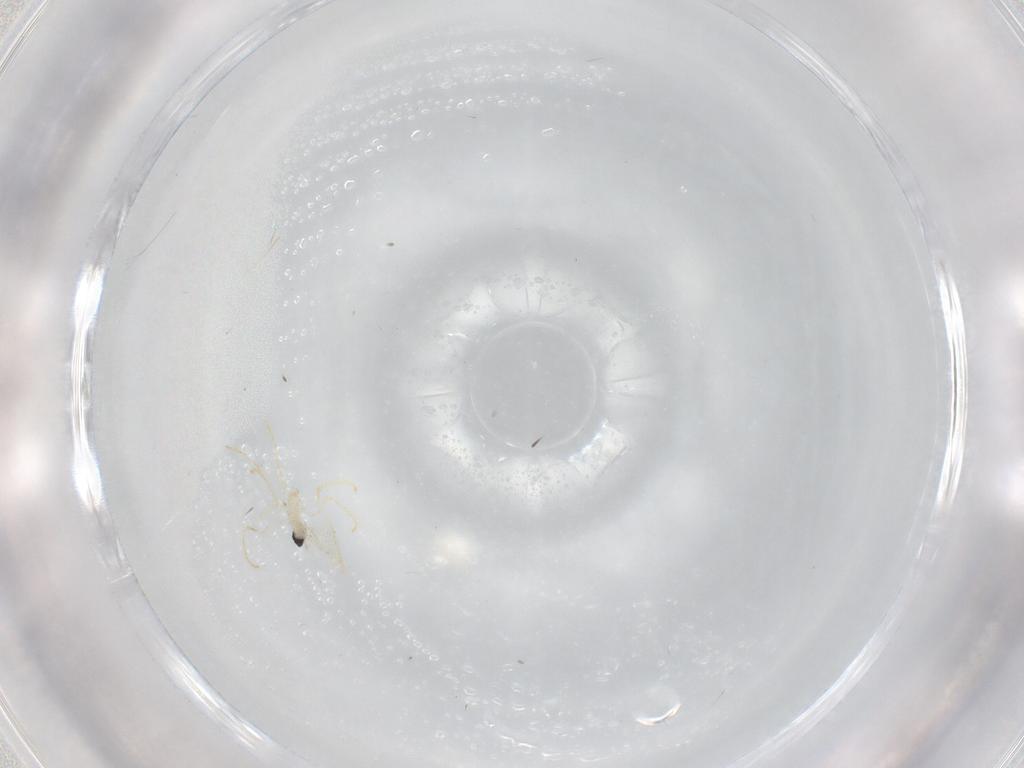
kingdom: Animalia
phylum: Arthropoda
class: Insecta
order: Diptera
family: Cecidomyiidae
